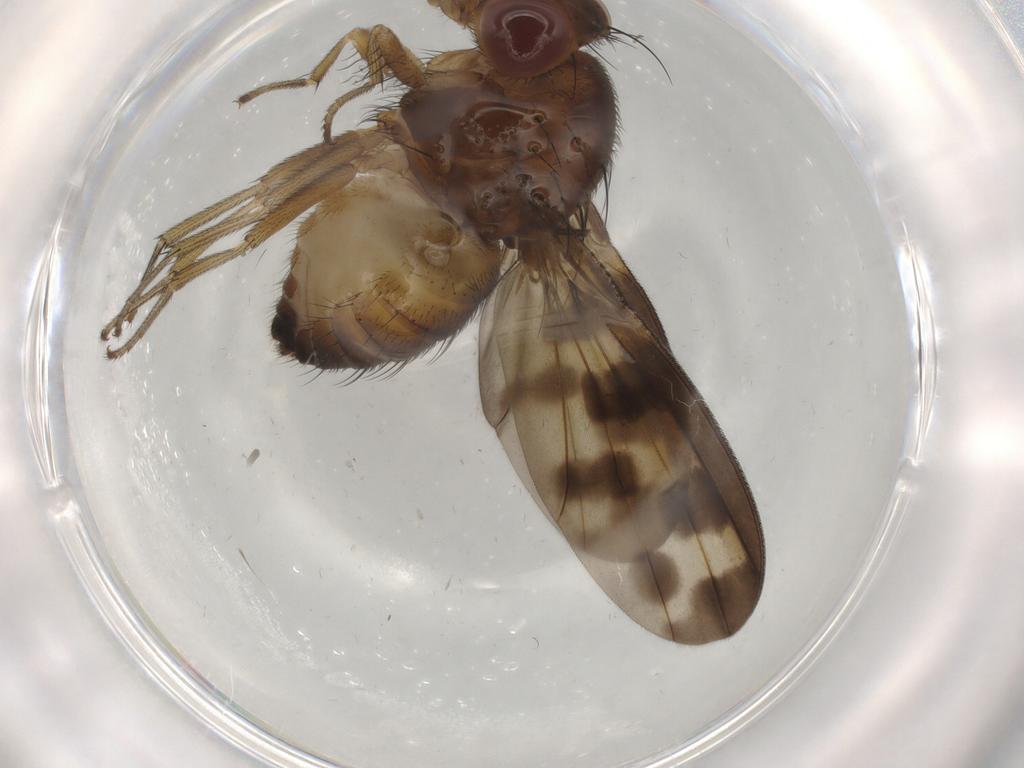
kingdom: Animalia
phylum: Arthropoda
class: Insecta
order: Diptera
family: Cecidomyiidae
